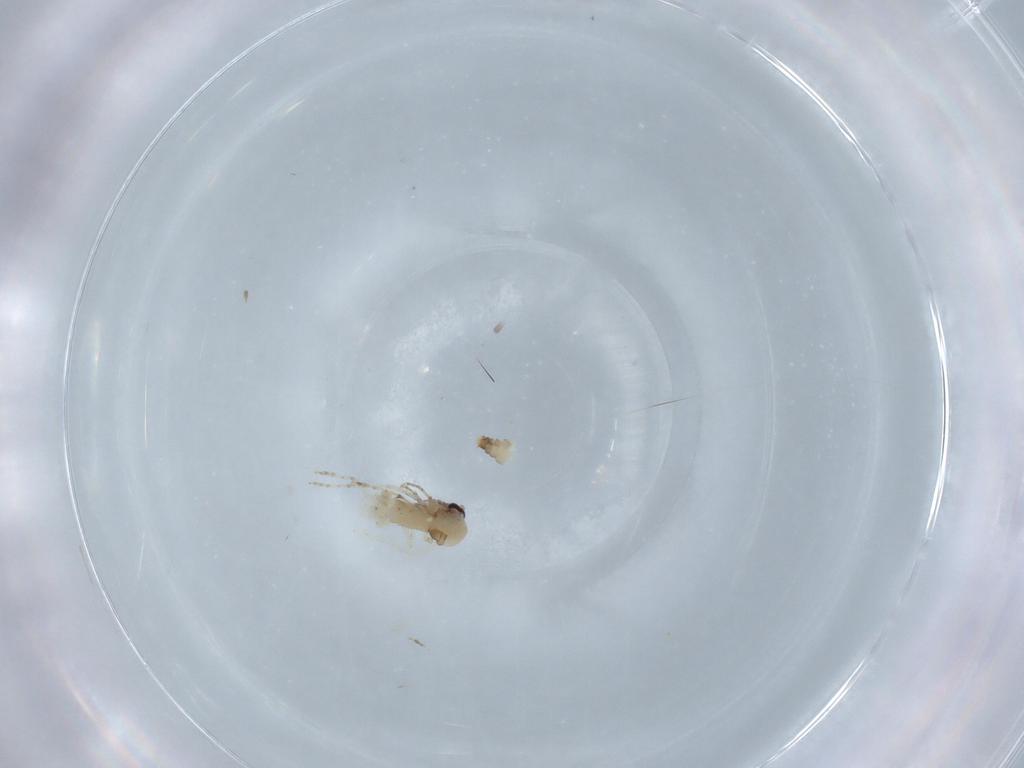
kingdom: Animalia
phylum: Arthropoda
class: Insecta
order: Diptera
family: Ceratopogonidae
